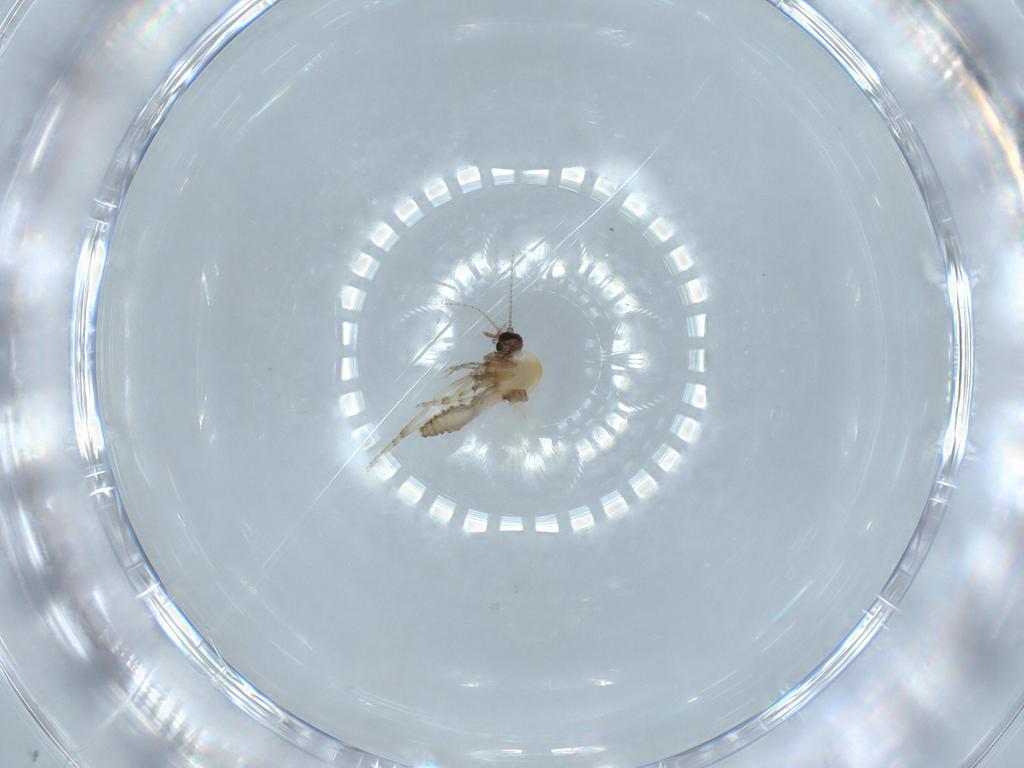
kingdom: Animalia
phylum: Arthropoda
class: Insecta
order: Diptera
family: Ceratopogonidae
